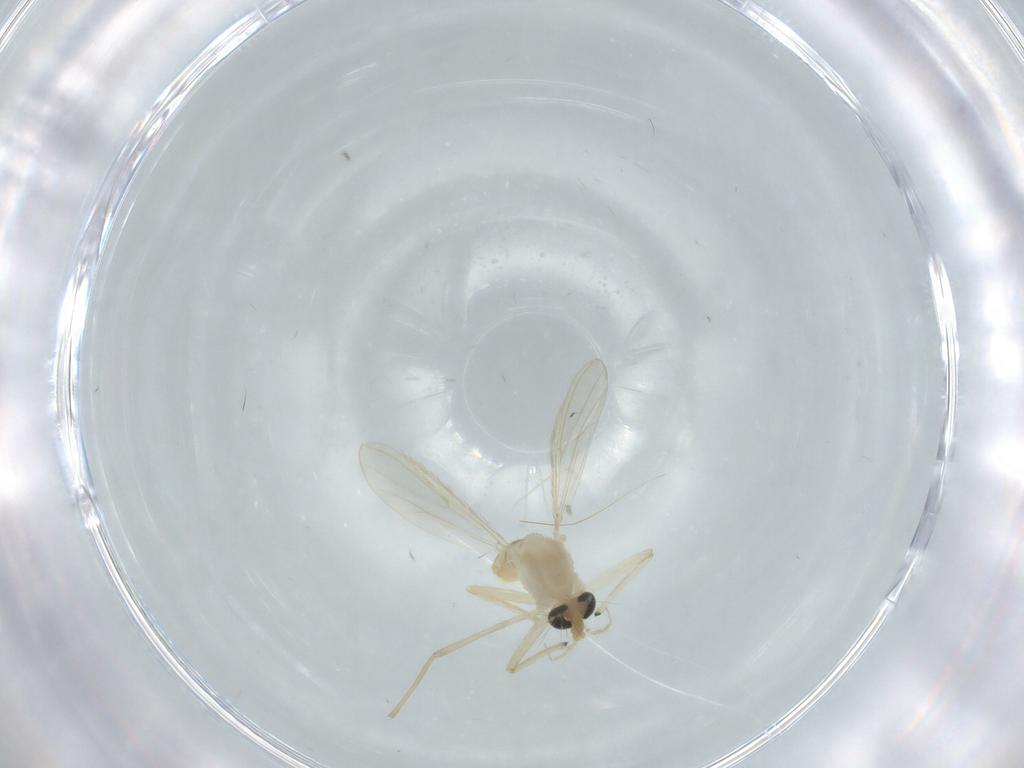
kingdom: Animalia
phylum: Arthropoda
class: Insecta
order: Diptera
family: Chironomidae
